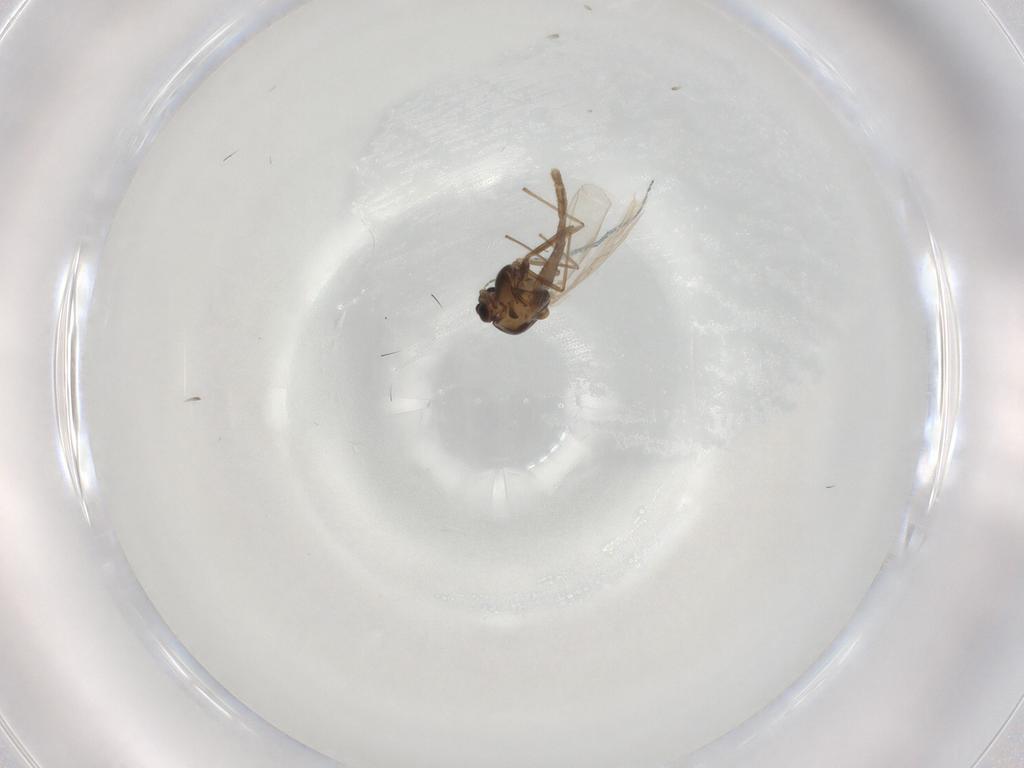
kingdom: Animalia
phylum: Arthropoda
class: Insecta
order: Diptera
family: Chironomidae
